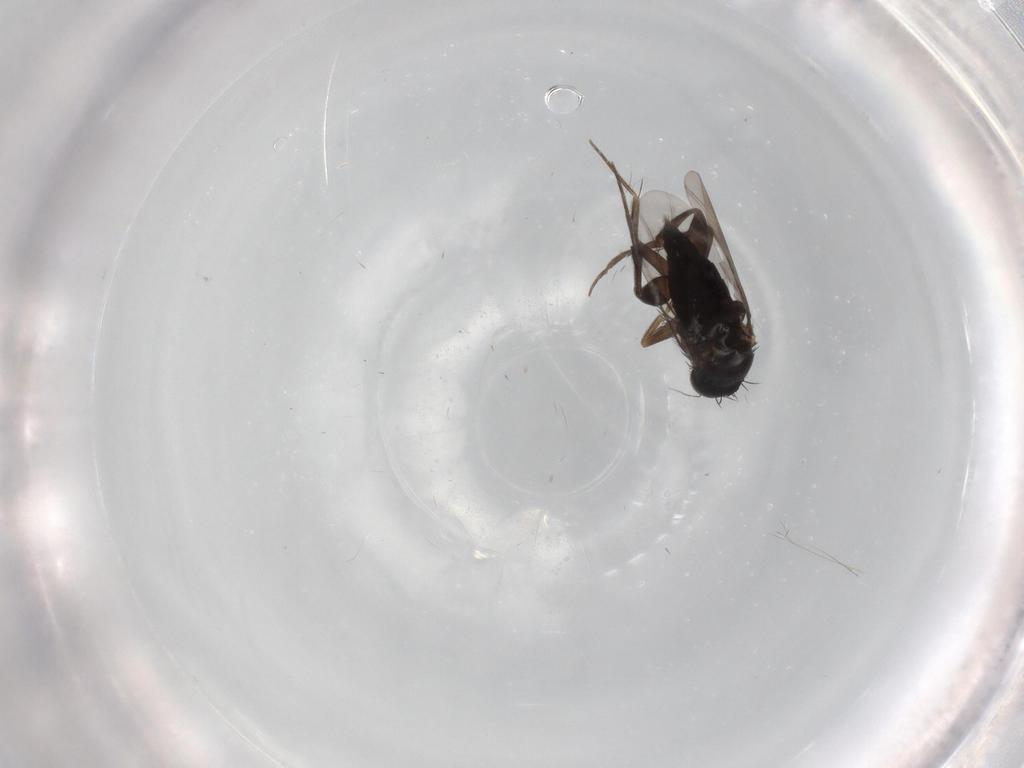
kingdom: Animalia
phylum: Arthropoda
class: Insecta
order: Diptera
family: Phoridae
